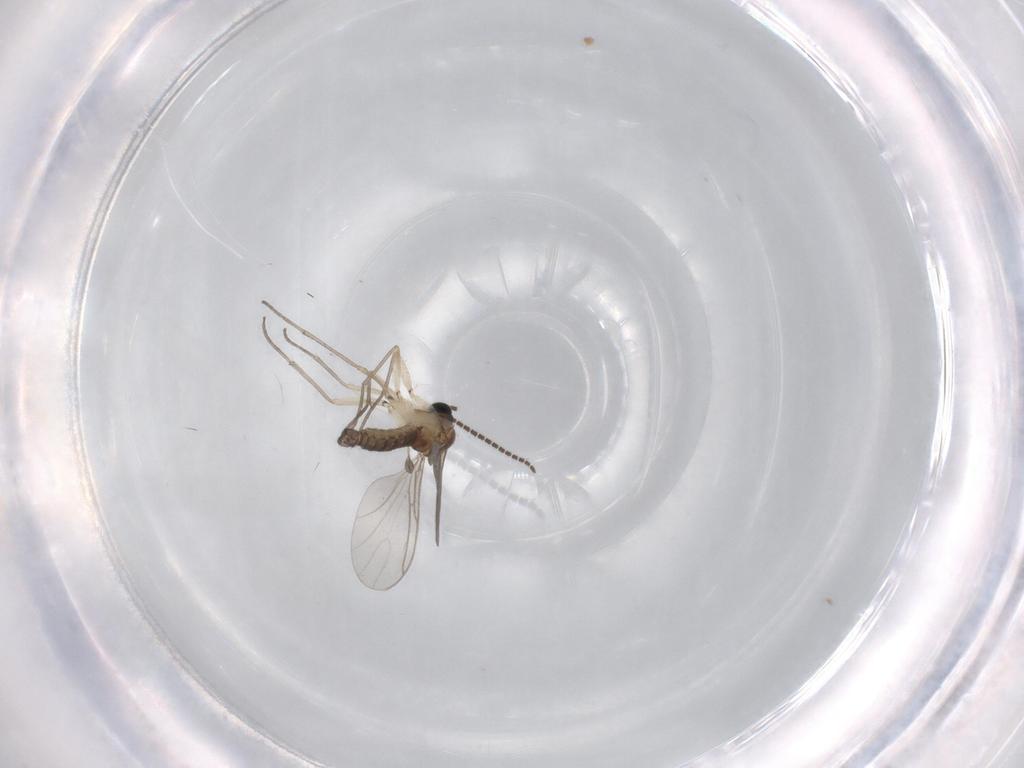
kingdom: Animalia
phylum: Arthropoda
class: Insecta
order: Diptera
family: Sciaridae
